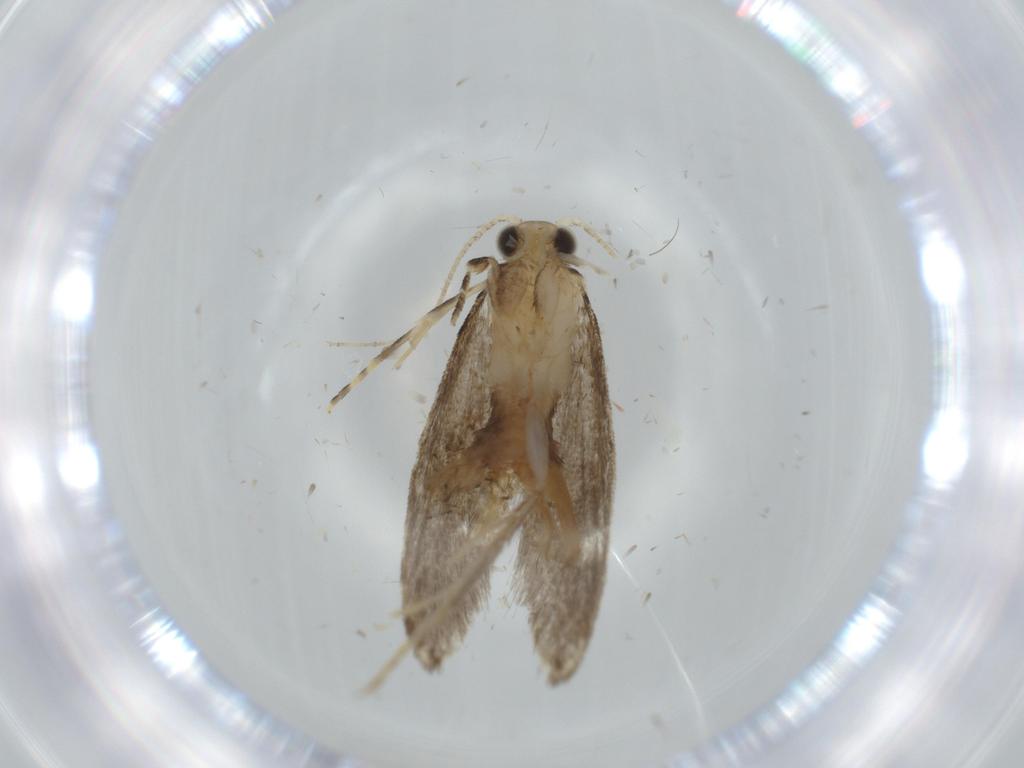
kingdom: Animalia
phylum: Arthropoda
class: Insecta
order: Lepidoptera
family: Tineidae
